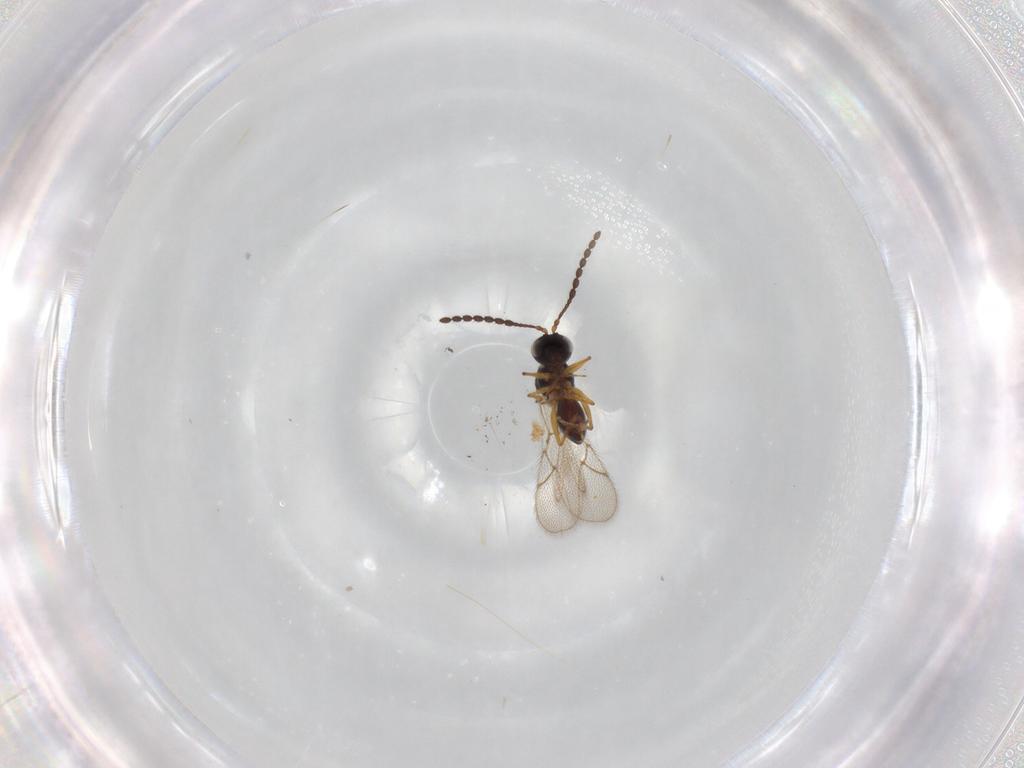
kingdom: Animalia
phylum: Arthropoda
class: Insecta
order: Hymenoptera
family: Figitidae
